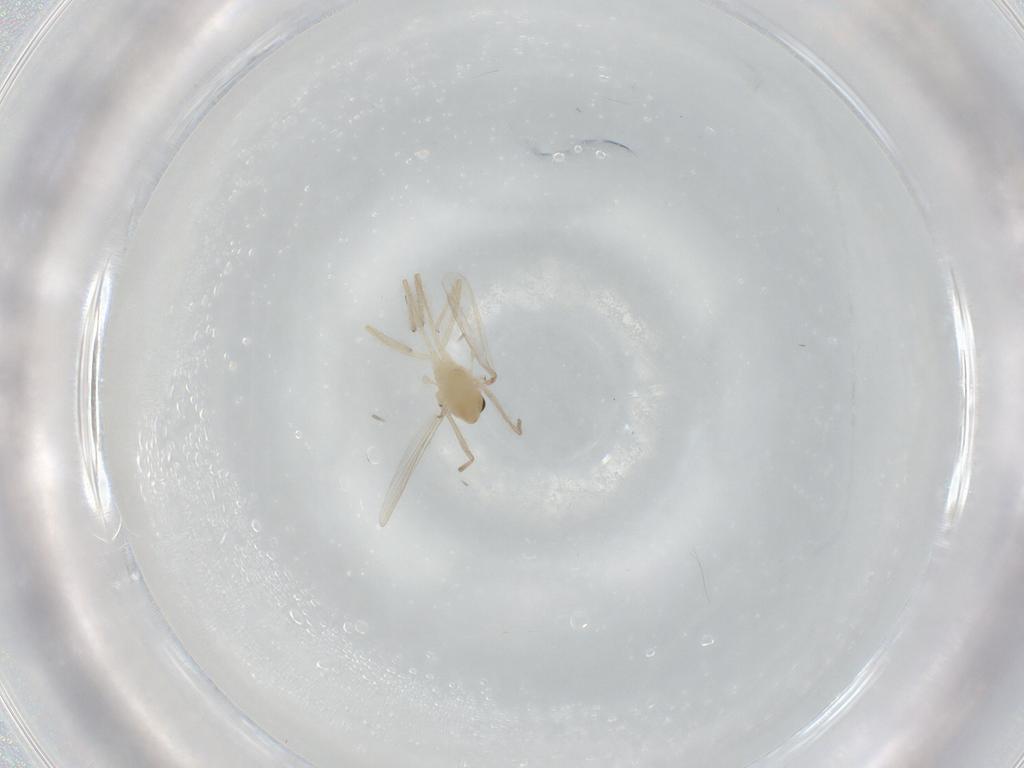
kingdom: Animalia
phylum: Arthropoda
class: Insecta
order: Diptera
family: Chironomidae
